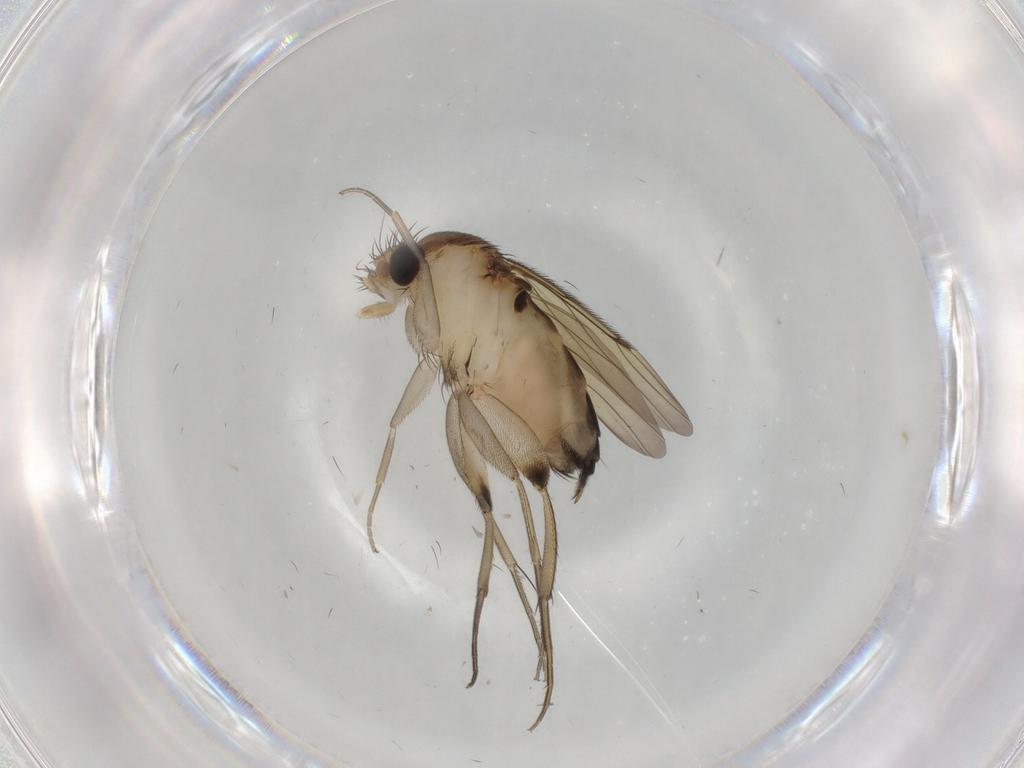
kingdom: Animalia
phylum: Arthropoda
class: Insecta
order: Diptera
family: Phoridae
